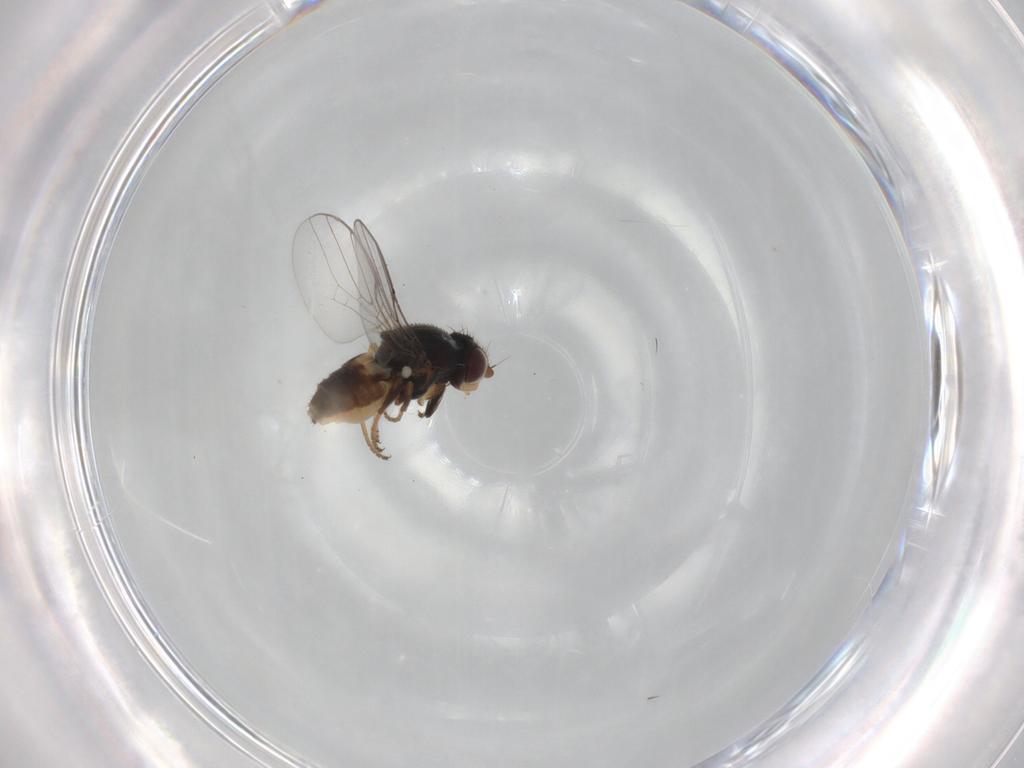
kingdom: Animalia
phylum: Arthropoda
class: Insecta
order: Diptera
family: Chloropidae
